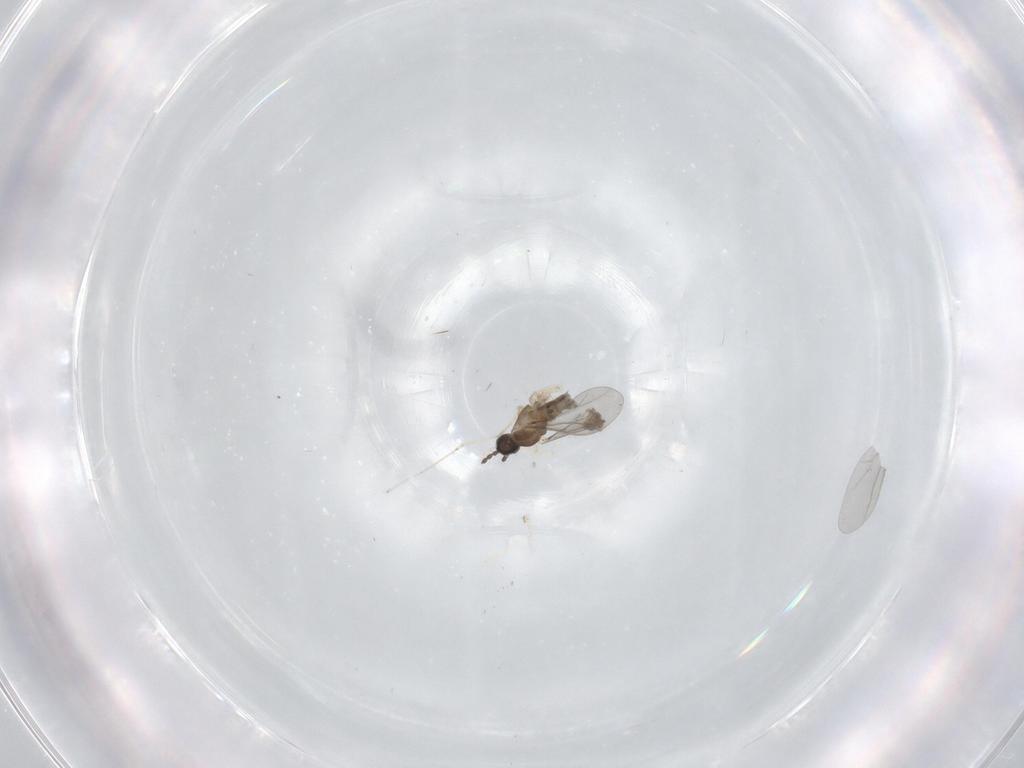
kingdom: Animalia
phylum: Arthropoda
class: Insecta
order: Diptera
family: Cecidomyiidae
